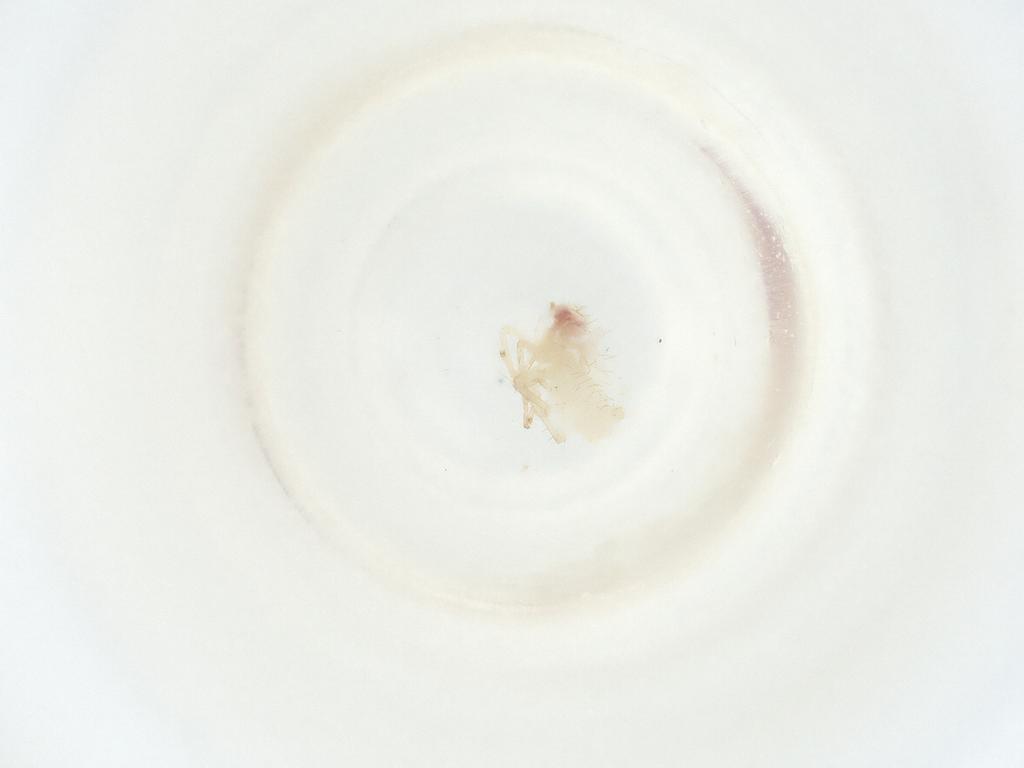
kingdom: Animalia
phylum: Arthropoda
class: Insecta
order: Hemiptera
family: Cicadellidae
